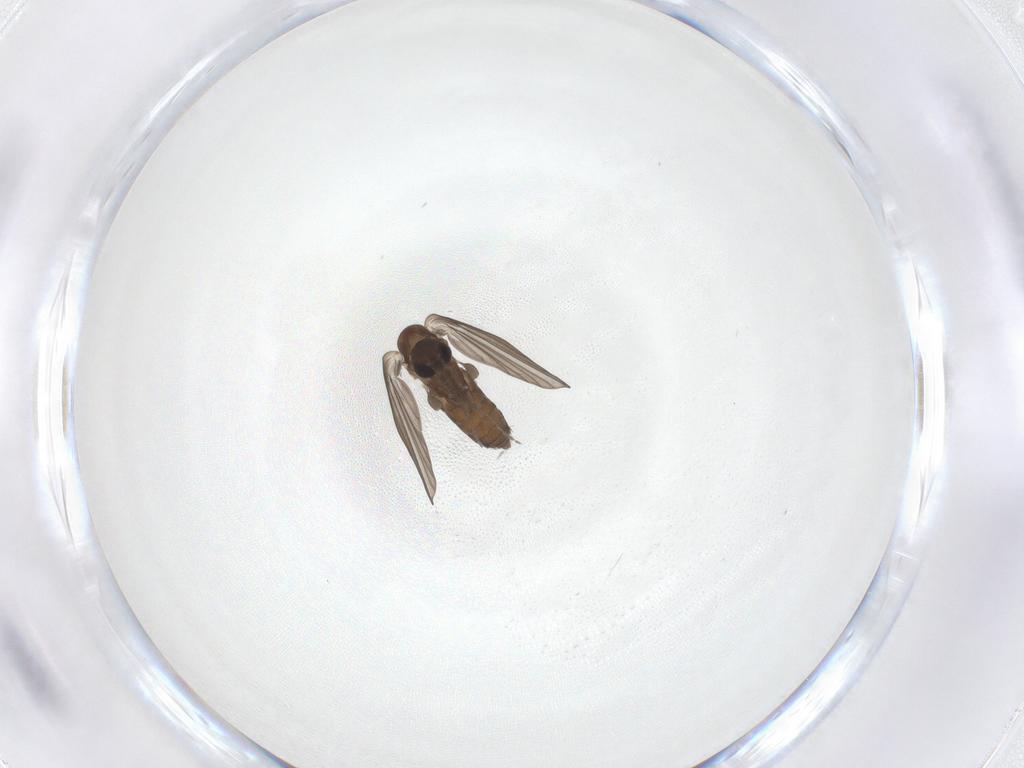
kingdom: Animalia
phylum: Arthropoda
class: Insecta
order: Diptera
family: Psychodidae
